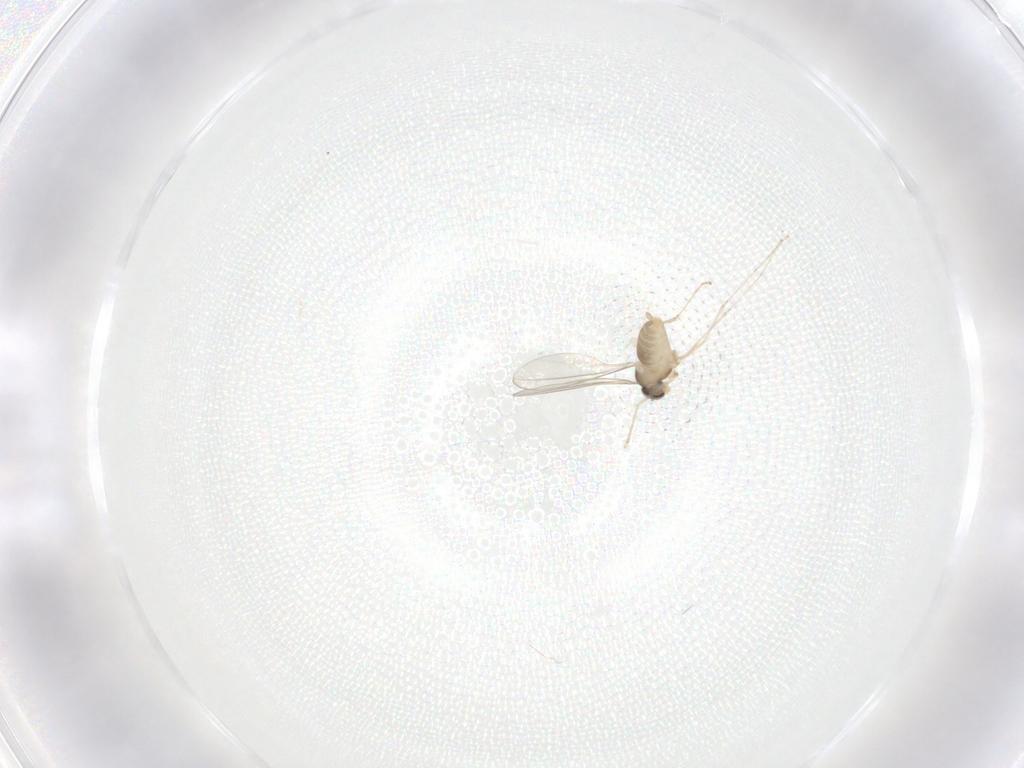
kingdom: Animalia
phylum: Arthropoda
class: Insecta
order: Diptera
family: Cecidomyiidae
